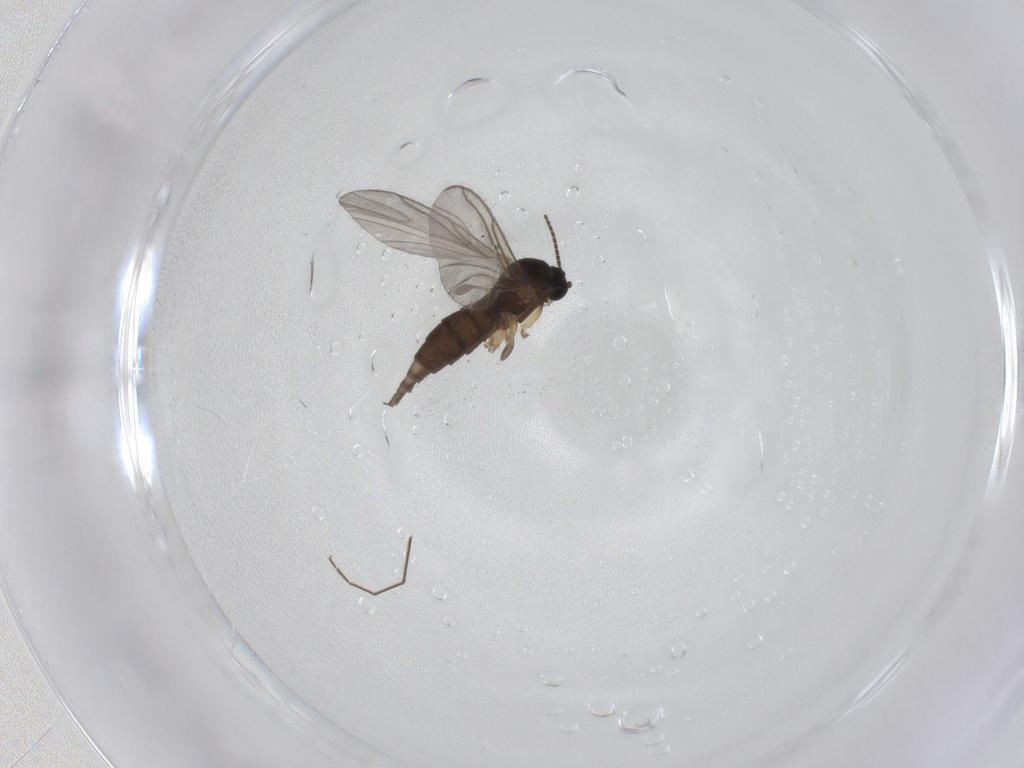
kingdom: Animalia
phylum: Arthropoda
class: Insecta
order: Diptera
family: Sciaridae
